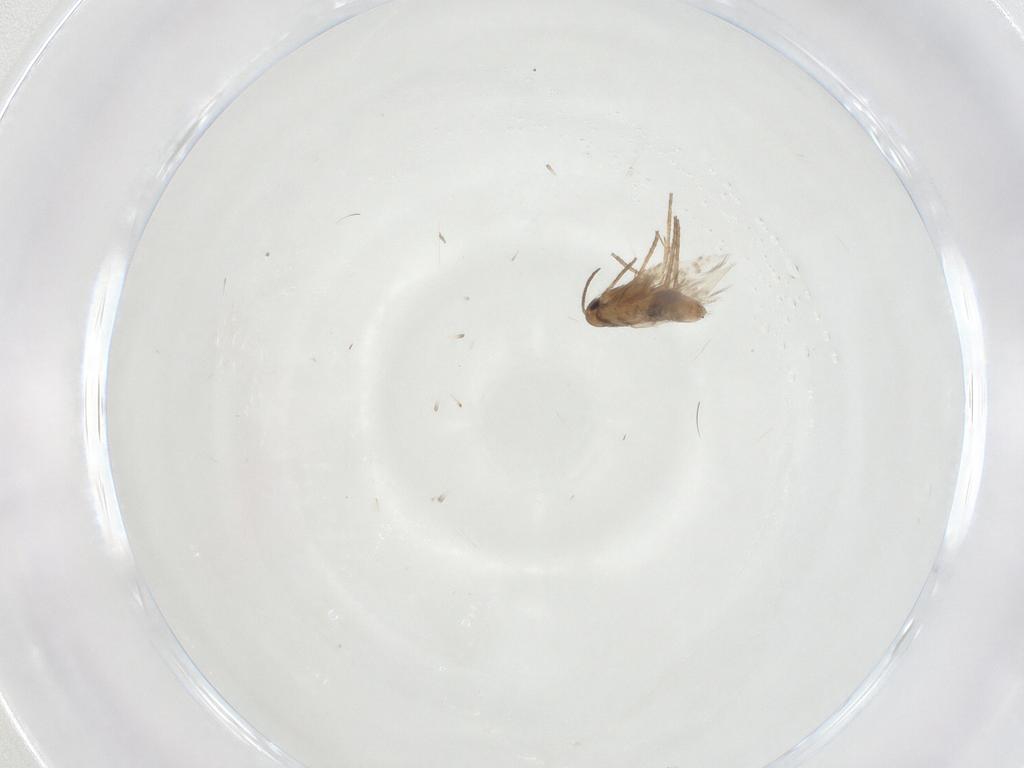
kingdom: Animalia
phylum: Arthropoda
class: Insecta
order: Lepidoptera
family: Heliozelidae
